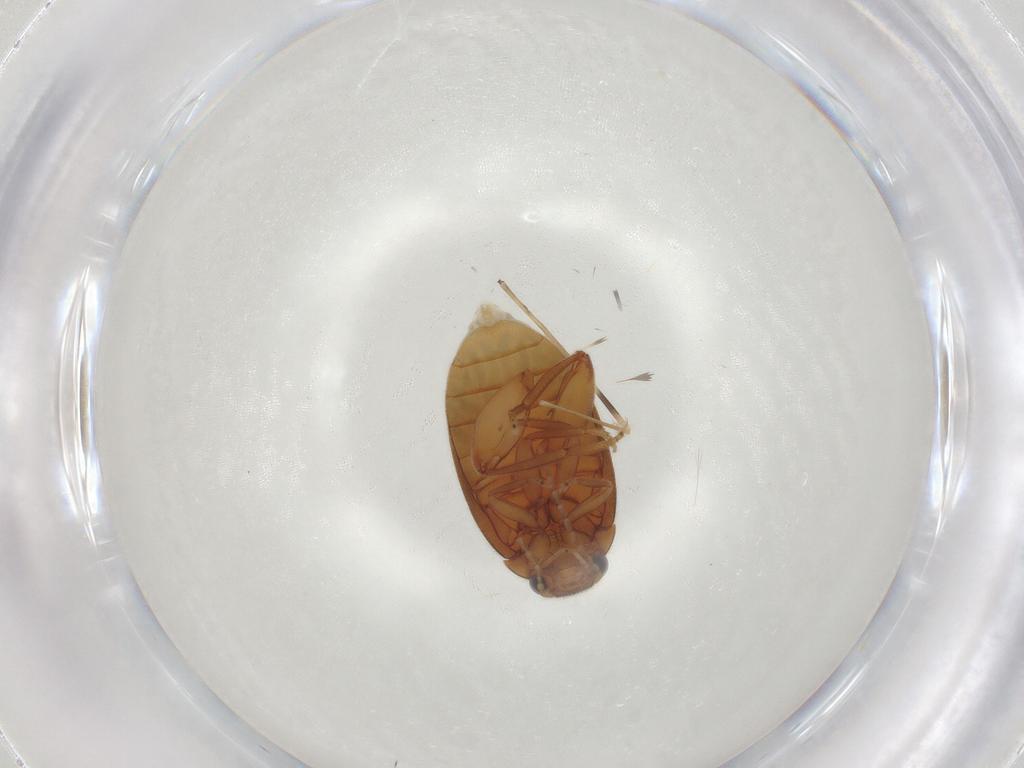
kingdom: Animalia
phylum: Arthropoda
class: Insecta
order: Coleoptera
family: Scirtidae
